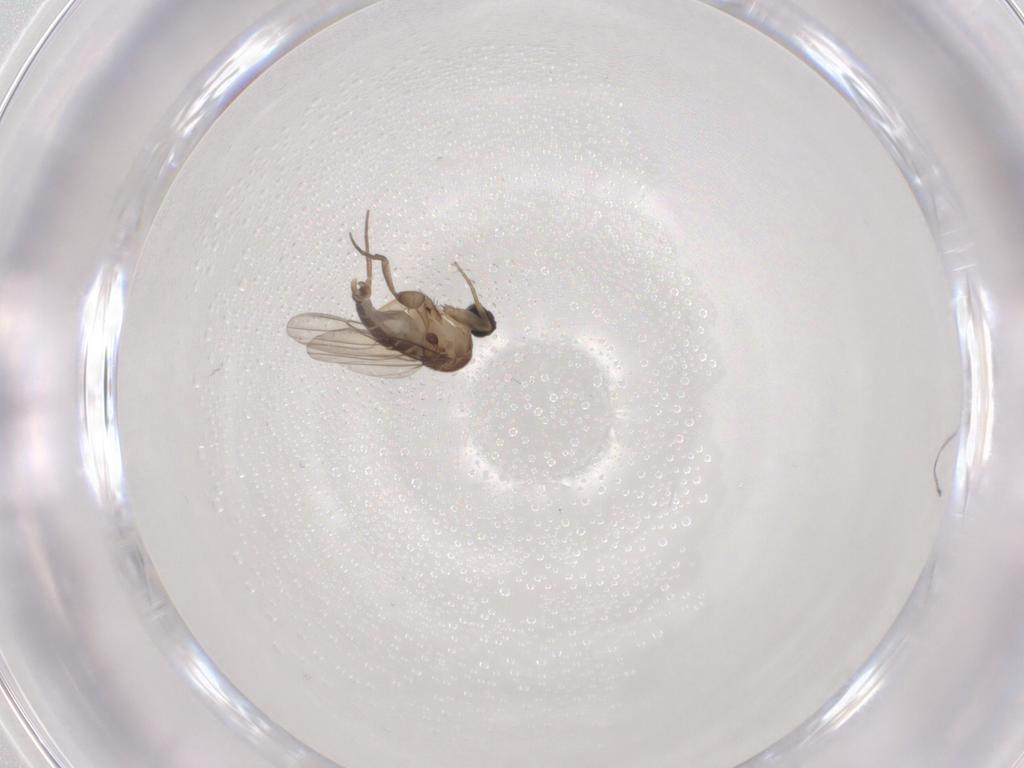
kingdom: Animalia
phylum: Arthropoda
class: Insecta
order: Diptera
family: Phoridae
